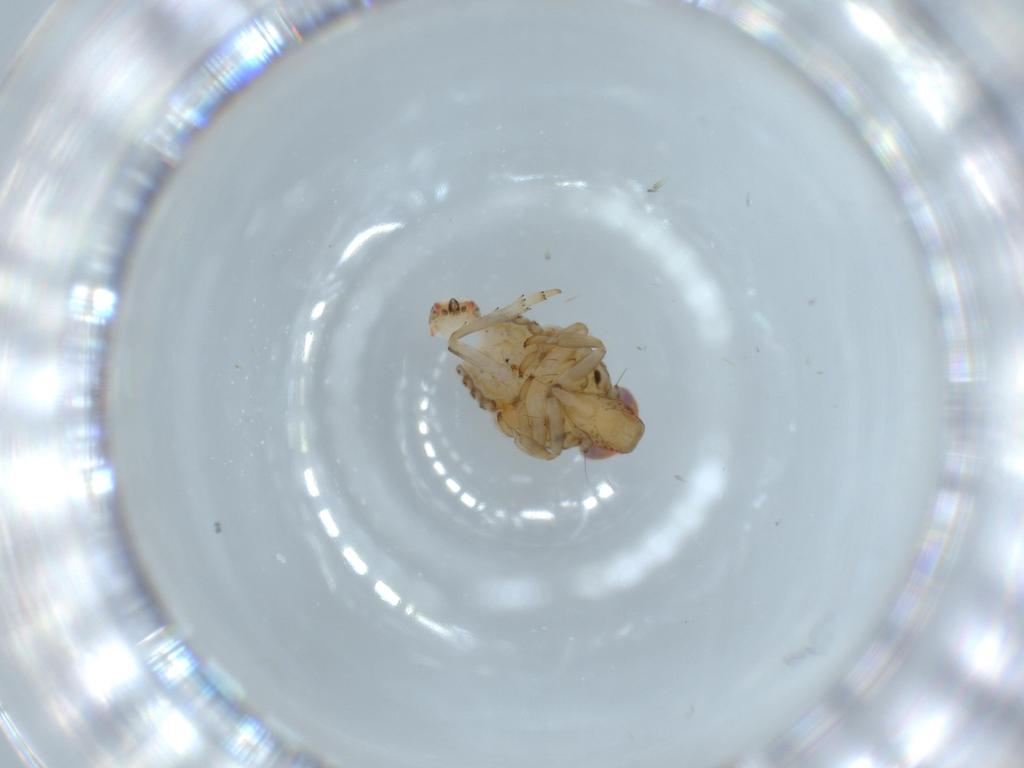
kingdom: Animalia
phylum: Arthropoda
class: Insecta
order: Hemiptera
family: Issidae
